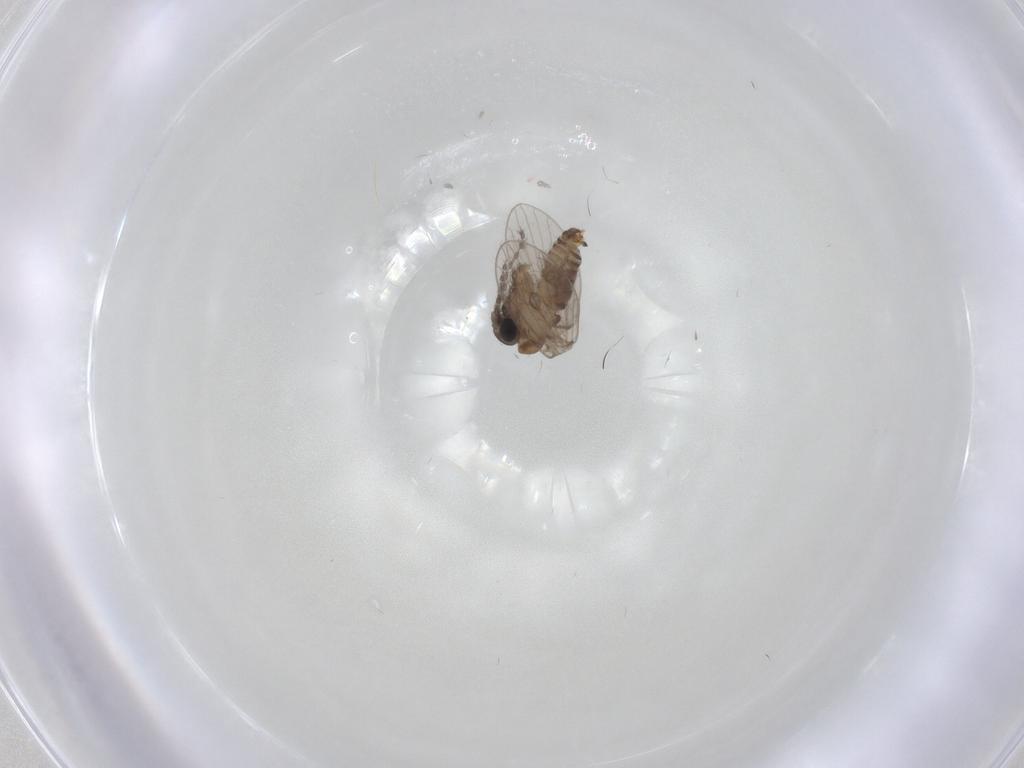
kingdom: Animalia
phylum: Arthropoda
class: Insecta
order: Diptera
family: Psychodidae
